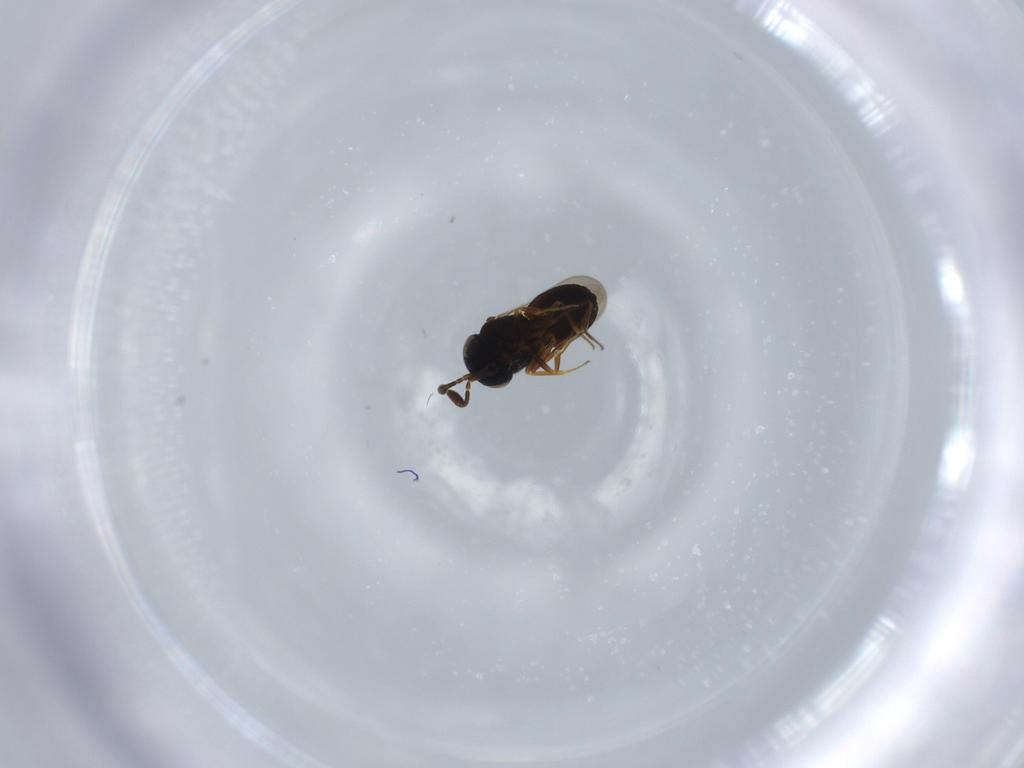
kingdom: Animalia
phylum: Arthropoda
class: Insecta
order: Hymenoptera
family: Scelionidae
